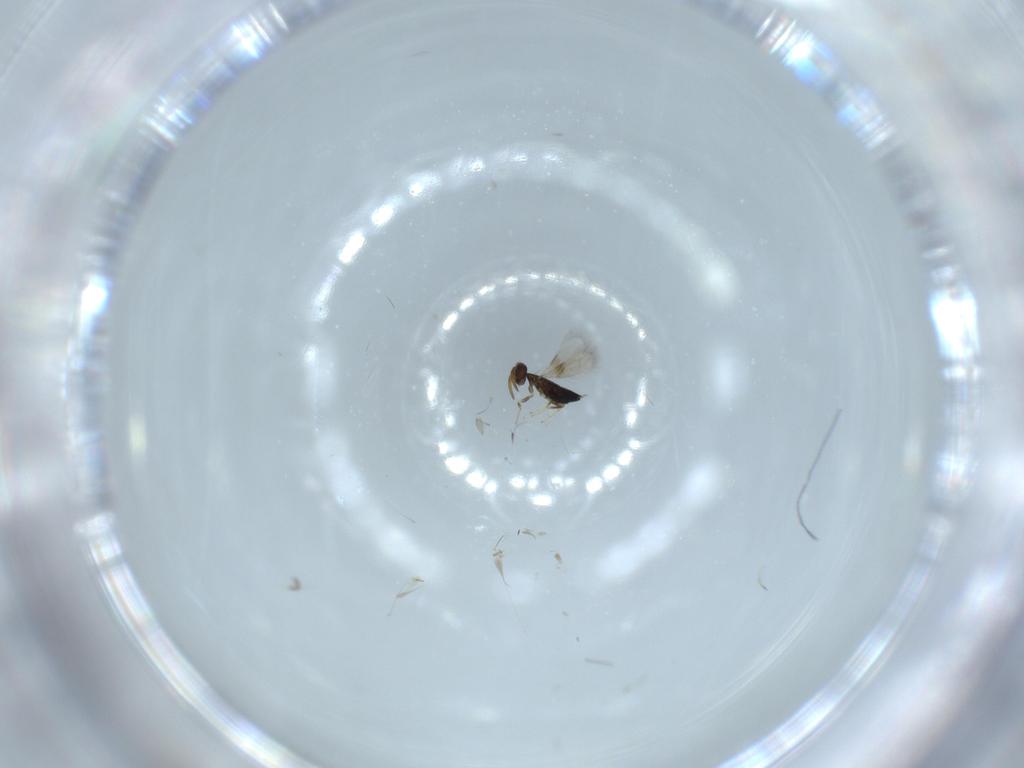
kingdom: Animalia
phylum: Arthropoda
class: Insecta
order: Hymenoptera
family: Signiphoridae
